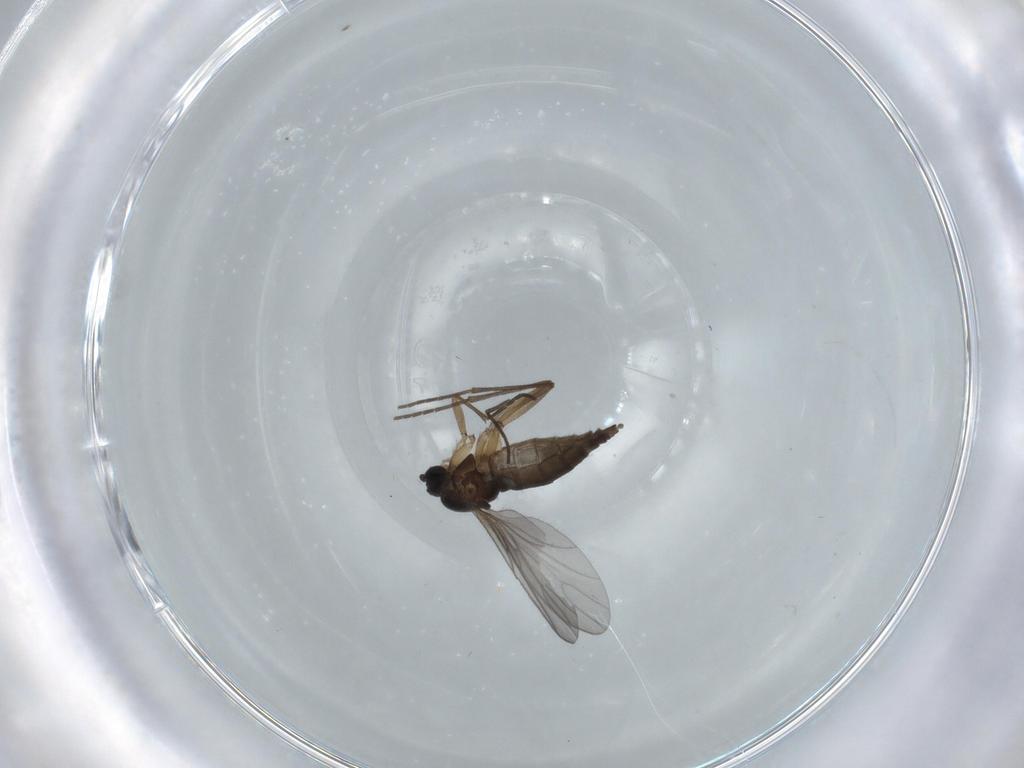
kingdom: Animalia
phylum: Arthropoda
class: Insecta
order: Diptera
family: Sciaridae
